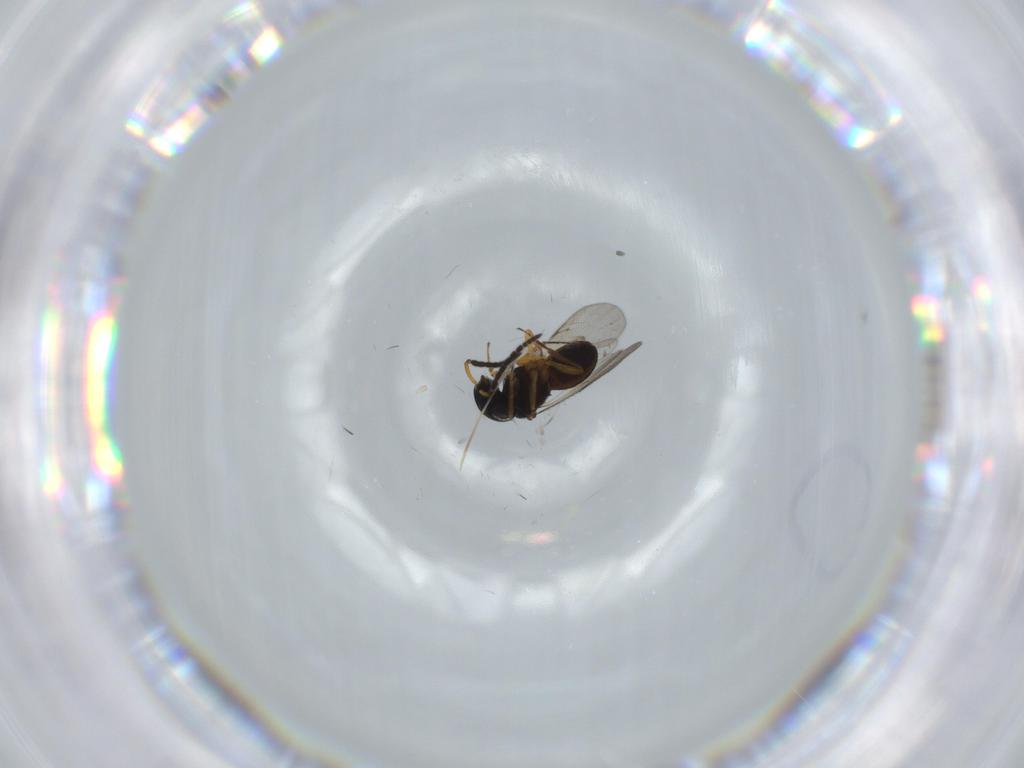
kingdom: Animalia
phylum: Arthropoda
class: Insecta
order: Coleoptera
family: Curculionidae
